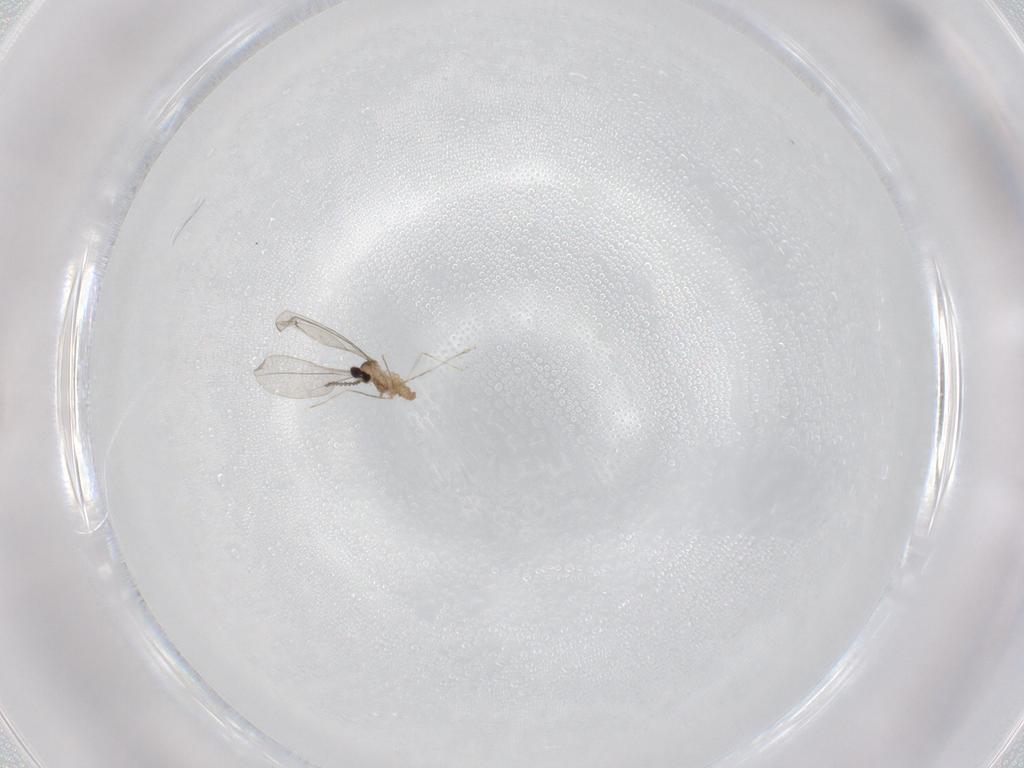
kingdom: Animalia
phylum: Arthropoda
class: Insecta
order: Diptera
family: Cecidomyiidae
